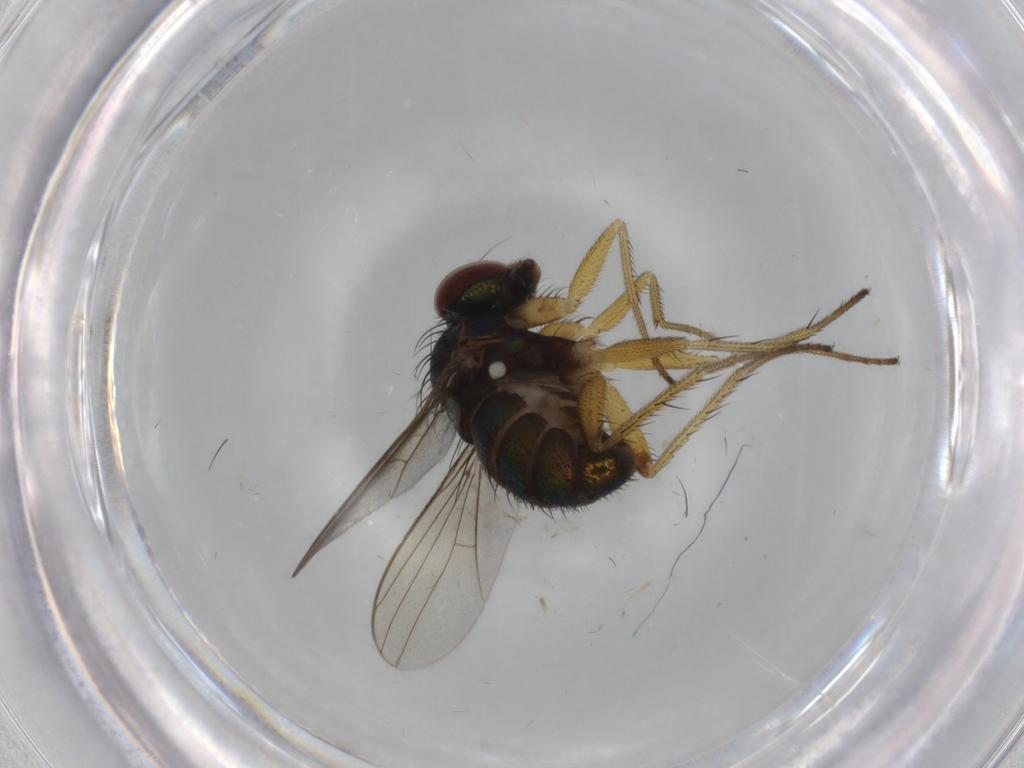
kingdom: Animalia
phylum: Arthropoda
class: Insecta
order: Diptera
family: Dolichopodidae
